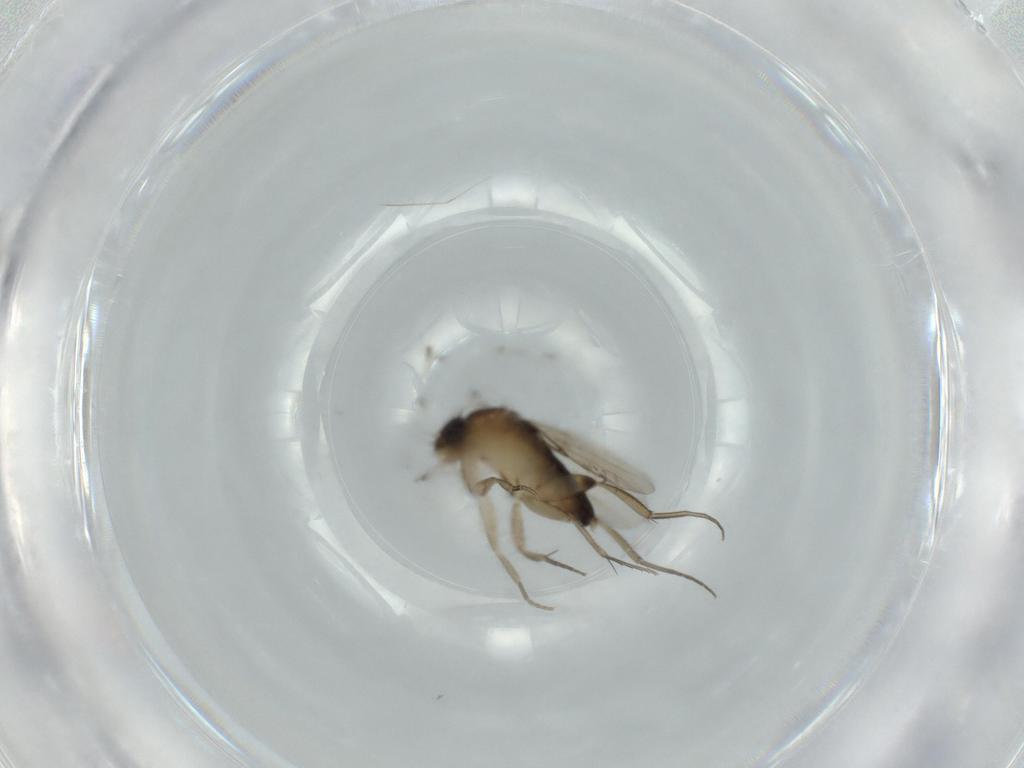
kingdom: Animalia
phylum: Arthropoda
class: Insecta
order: Diptera
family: Phoridae
